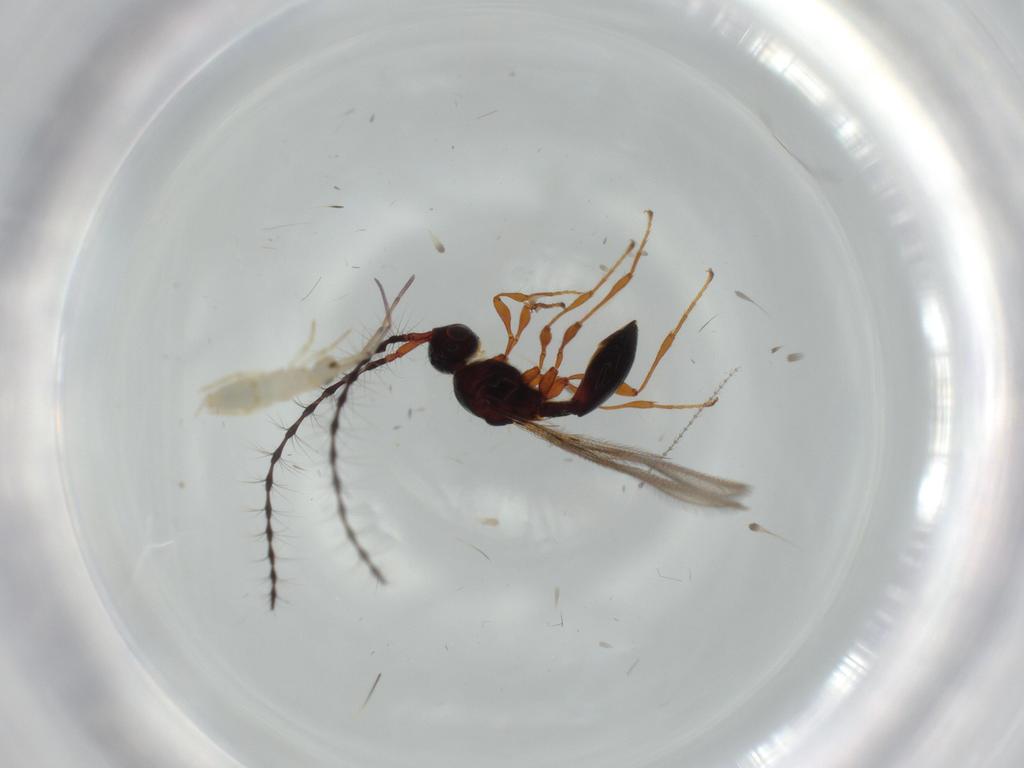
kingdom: Animalia
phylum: Arthropoda
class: Insecta
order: Hymenoptera
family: Diapriidae
